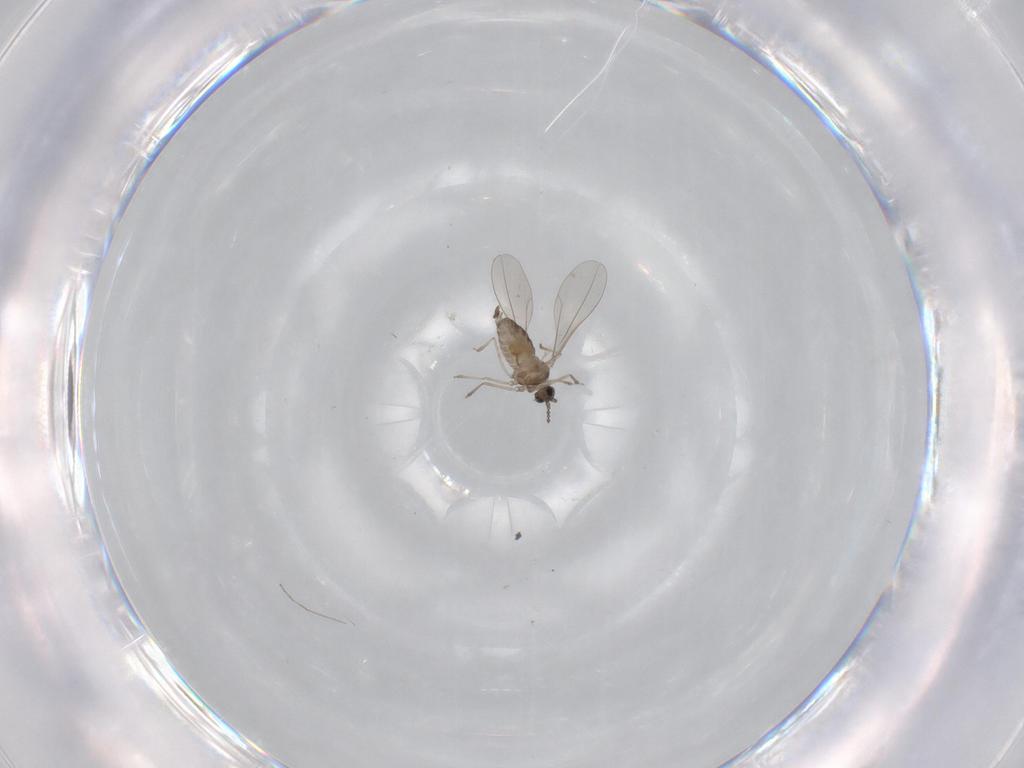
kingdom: Animalia
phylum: Arthropoda
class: Insecta
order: Diptera
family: Cecidomyiidae
